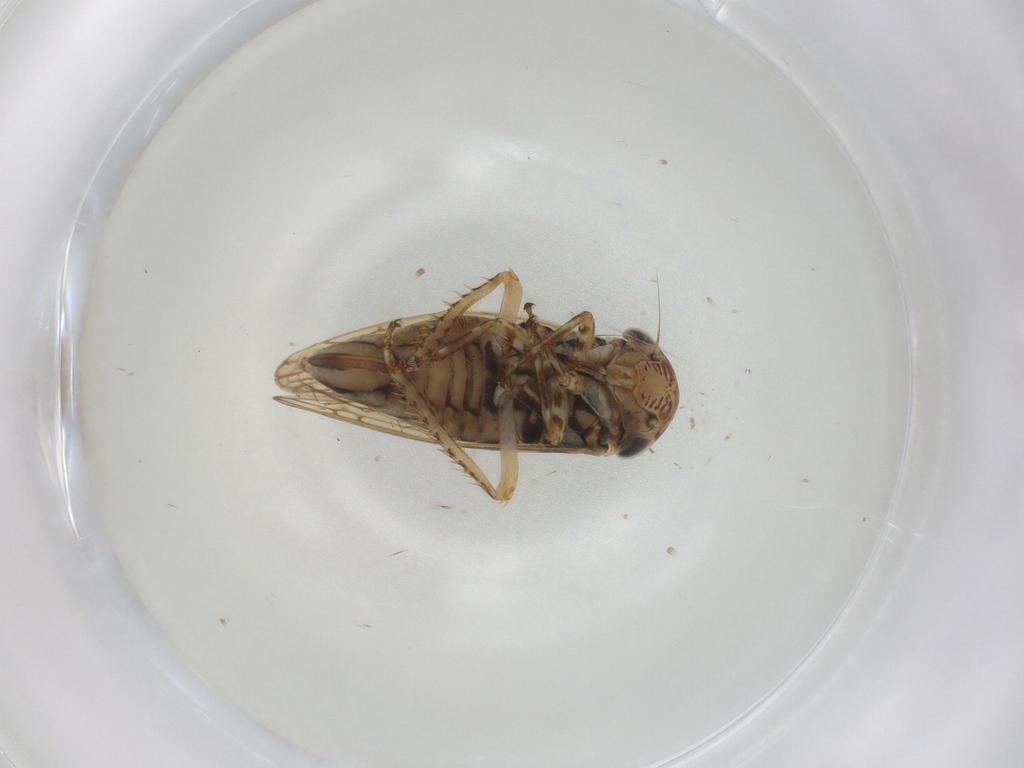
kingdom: Animalia
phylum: Arthropoda
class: Insecta
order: Hemiptera
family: Cicadellidae
